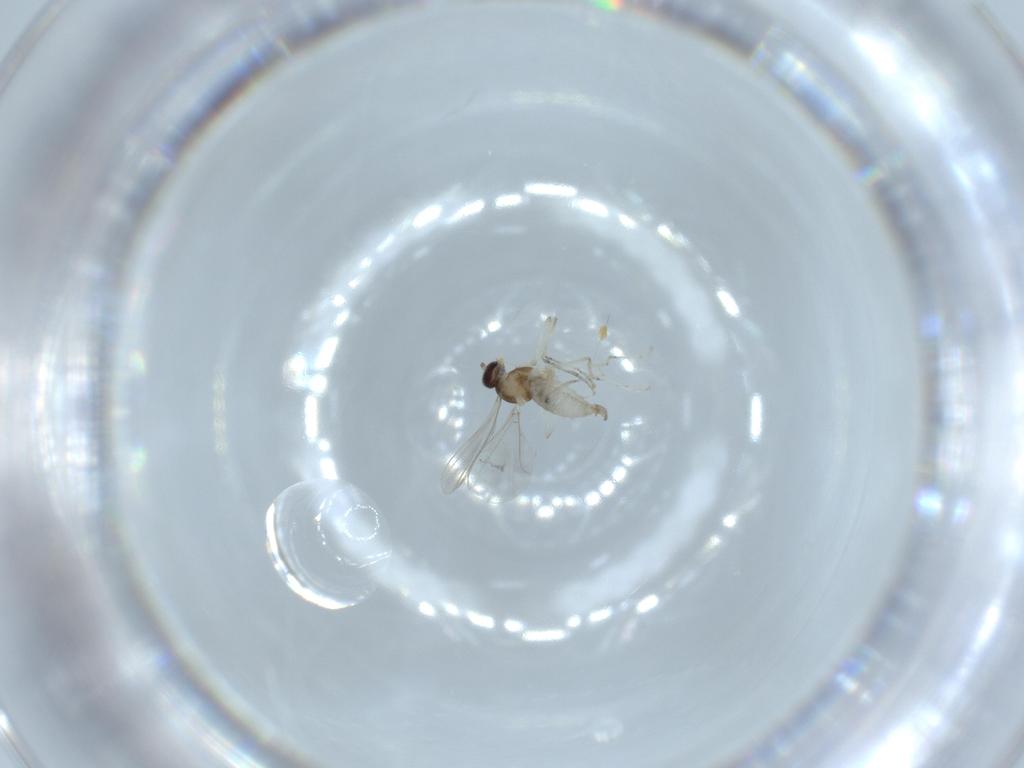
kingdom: Animalia
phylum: Arthropoda
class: Insecta
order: Diptera
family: Cecidomyiidae
